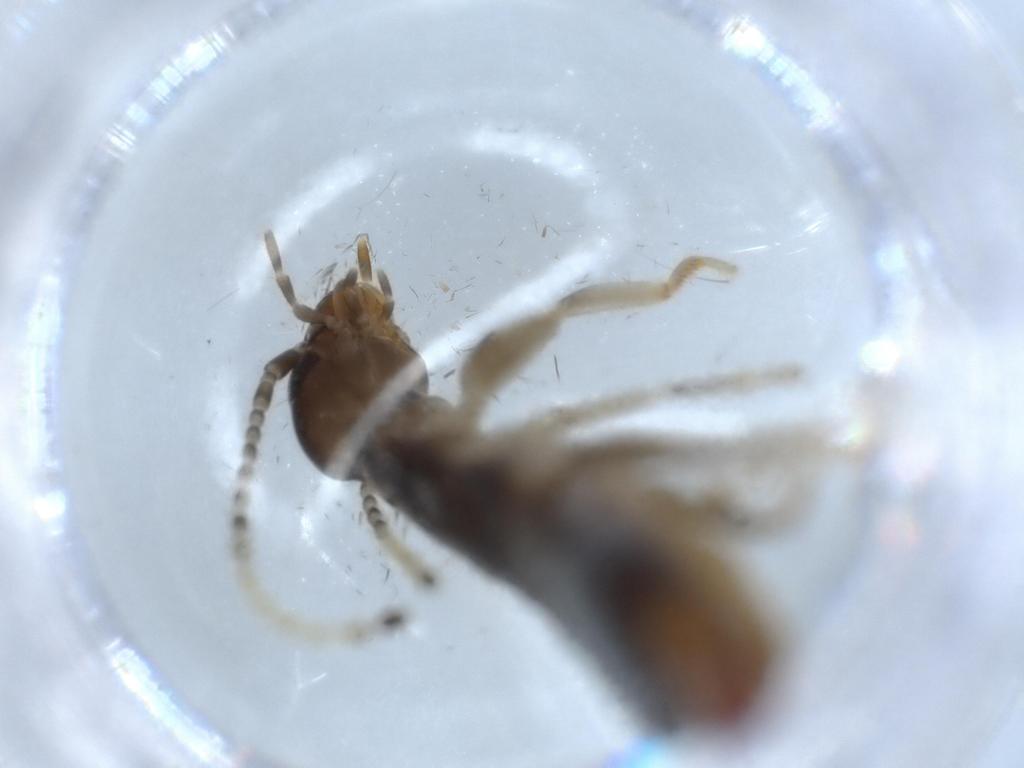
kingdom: Animalia
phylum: Arthropoda
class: Insecta
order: Dermaptera
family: Labiduridae
